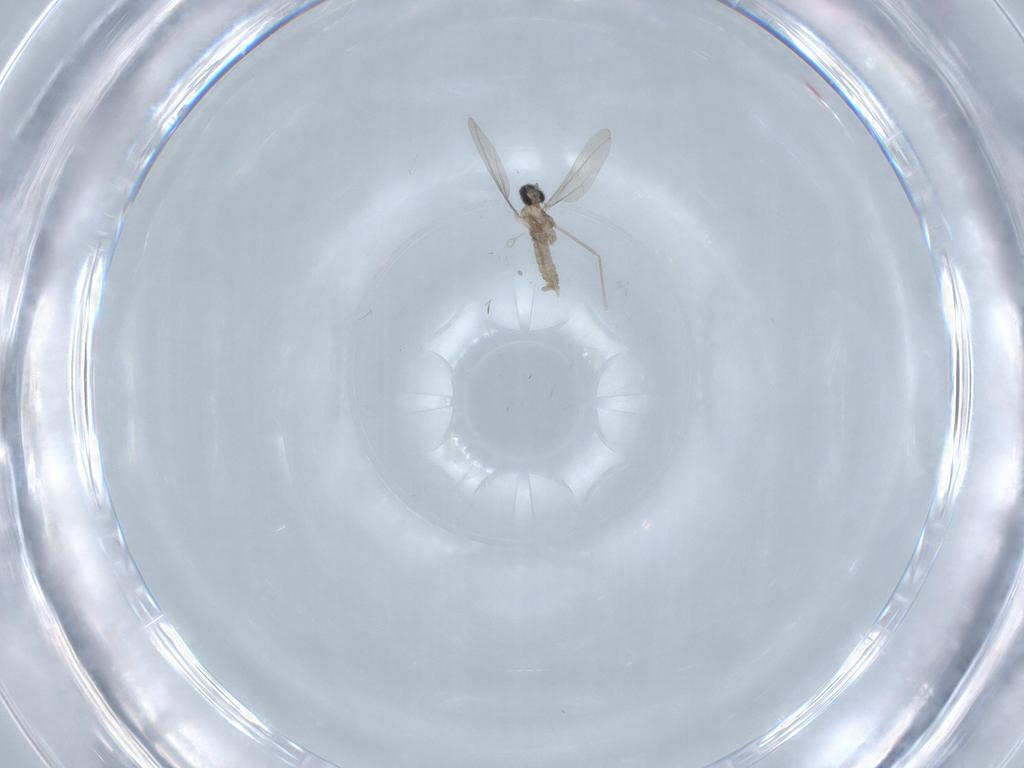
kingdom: Animalia
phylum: Arthropoda
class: Insecta
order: Diptera
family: Cecidomyiidae
